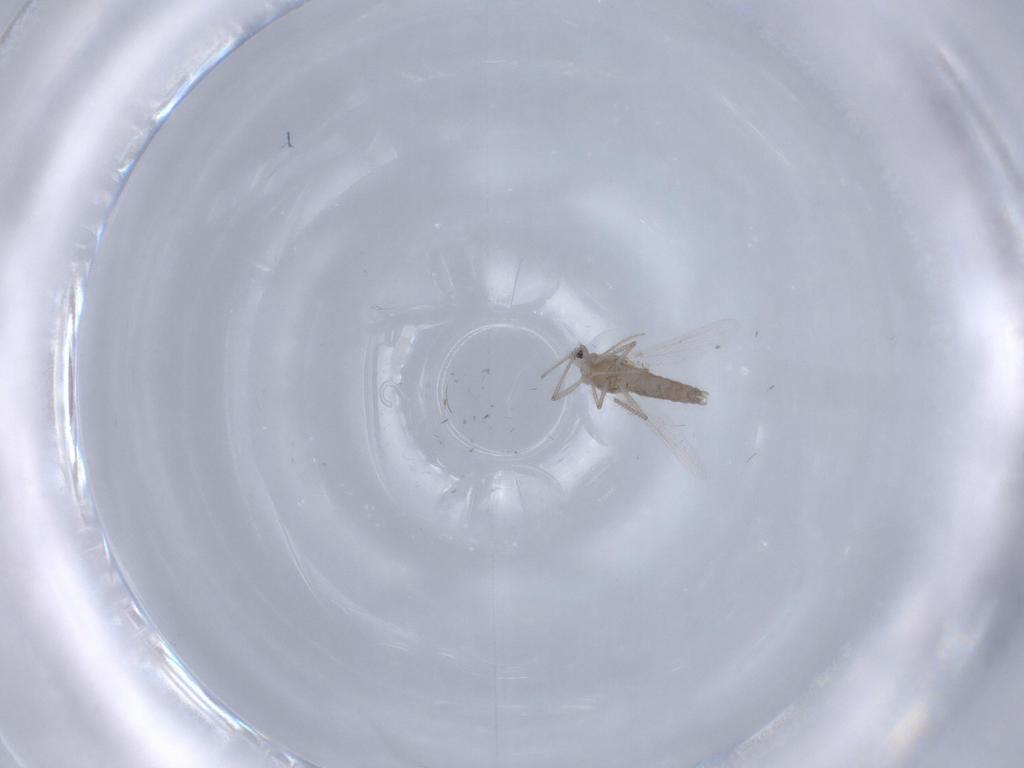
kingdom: Animalia
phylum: Arthropoda
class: Insecta
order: Diptera
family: Chironomidae
